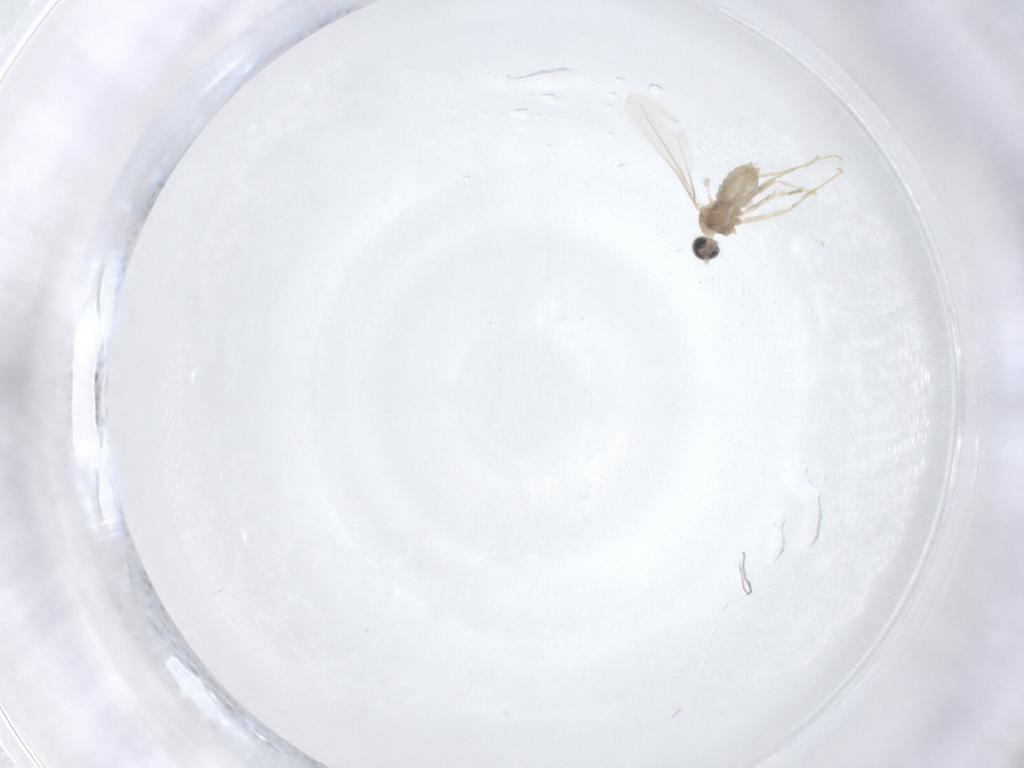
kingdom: Animalia
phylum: Arthropoda
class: Insecta
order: Diptera
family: Cecidomyiidae
